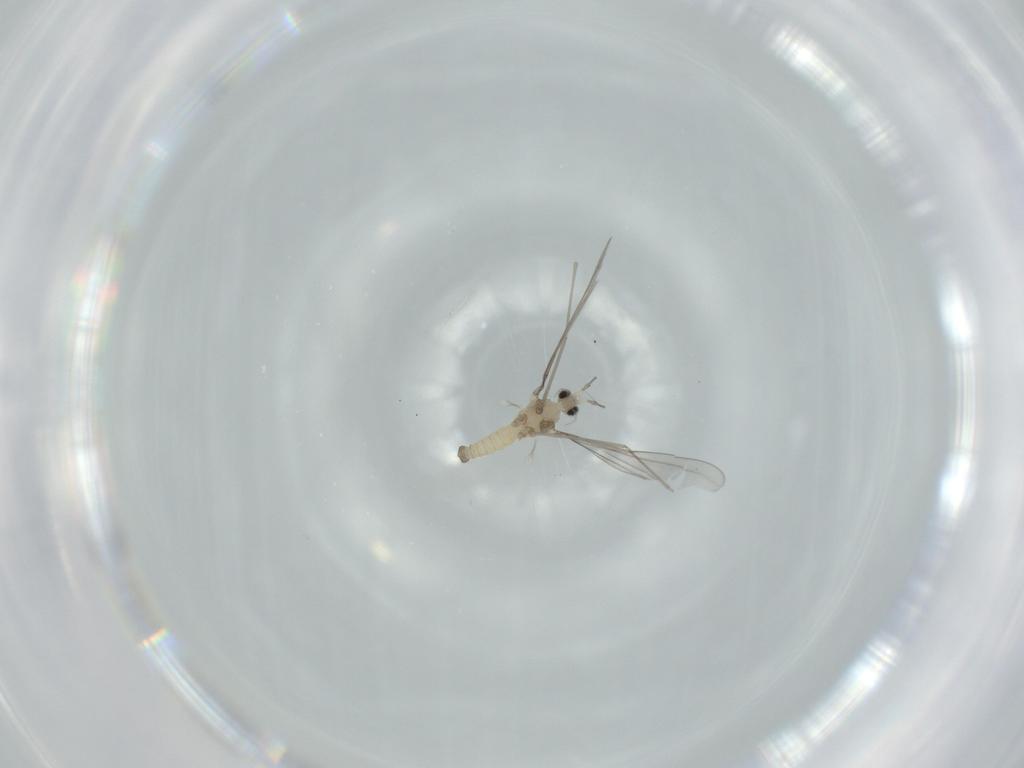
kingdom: Animalia
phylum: Arthropoda
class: Insecta
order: Diptera
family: Cecidomyiidae
